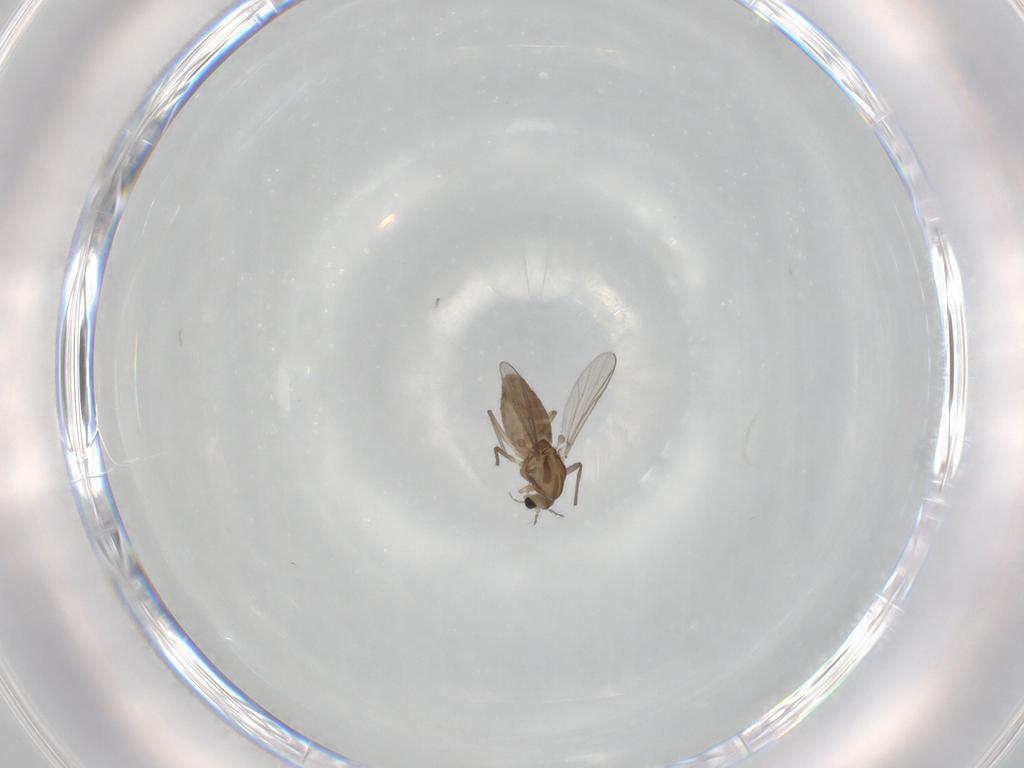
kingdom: Animalia
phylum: Arthropoda
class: Insecta
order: Diptera
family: Chironomidae
